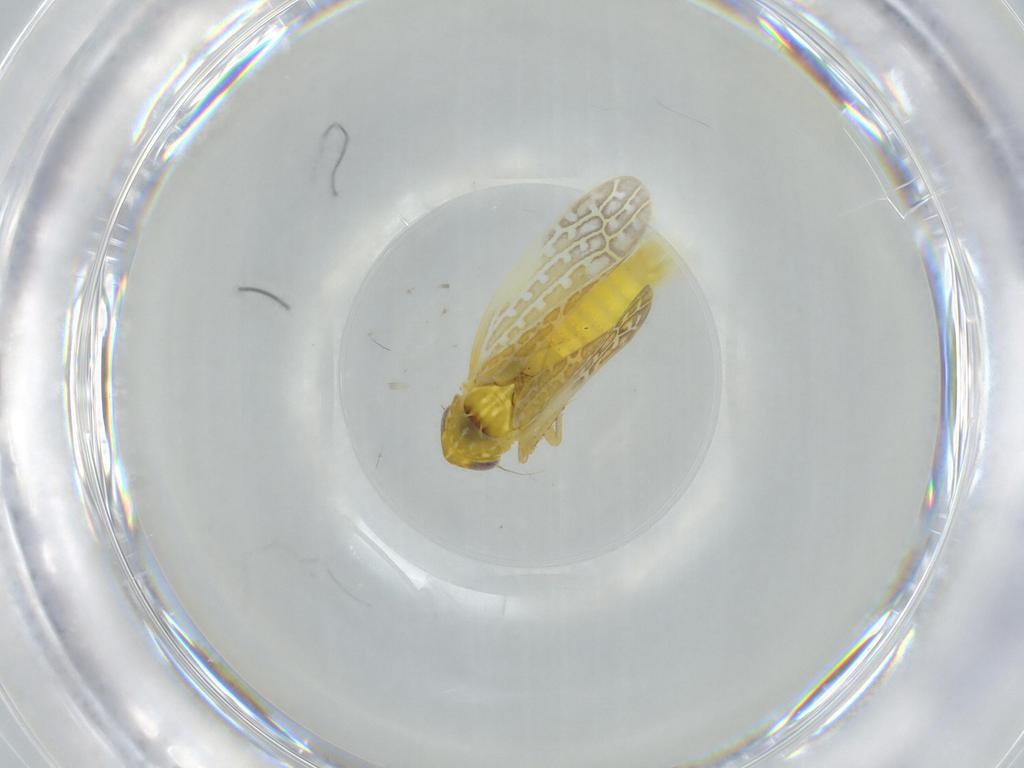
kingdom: Animalia
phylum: Arthropoda
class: Insecta
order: Hemiptera
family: Cicadellidae
